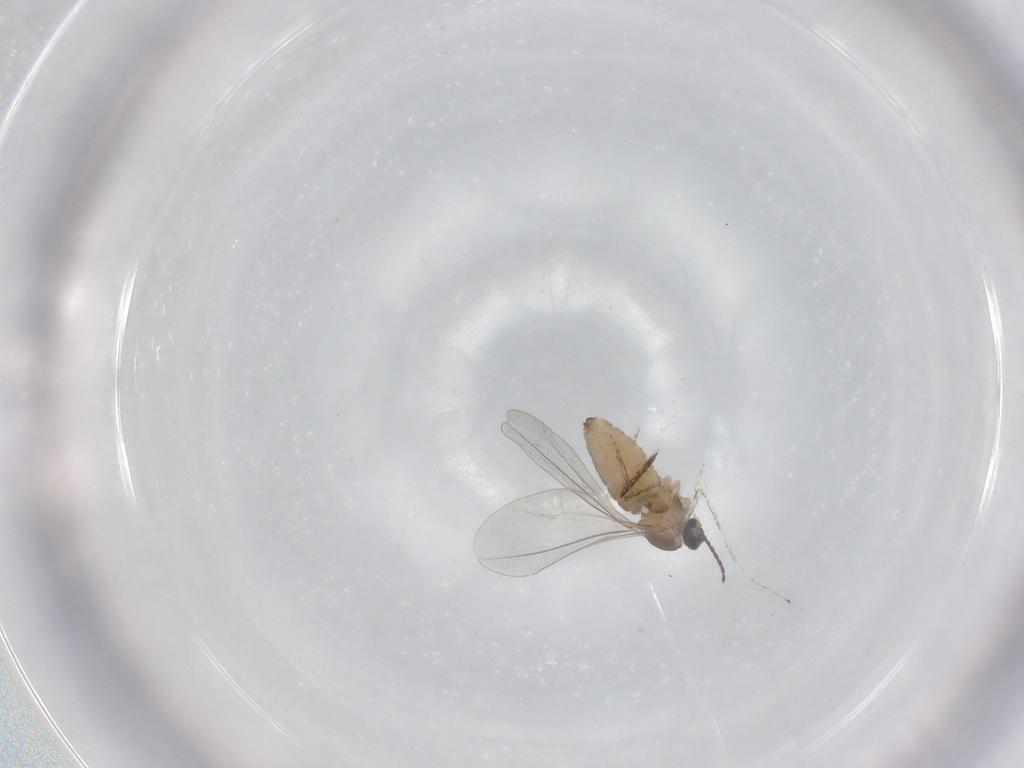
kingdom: Animalia
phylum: Arthropoda
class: Insecta
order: Diptera
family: Cecidomyiidae
